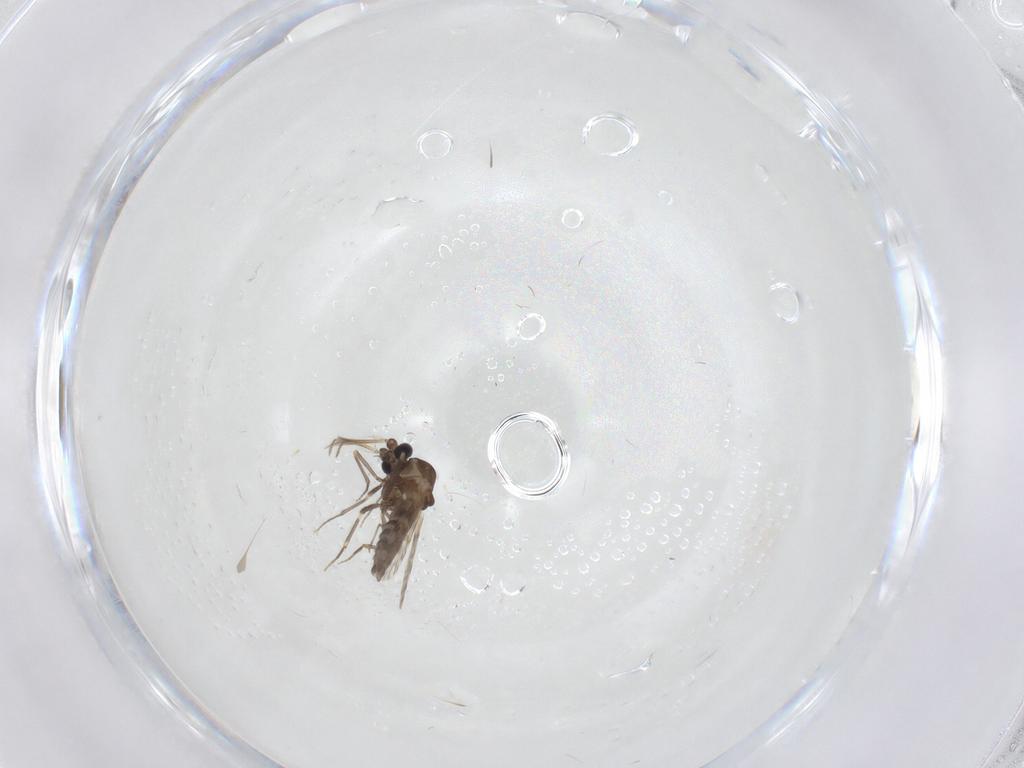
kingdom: Animalia
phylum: Arthropoda
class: Insecta
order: Diptera
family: Ceratopogonidae
